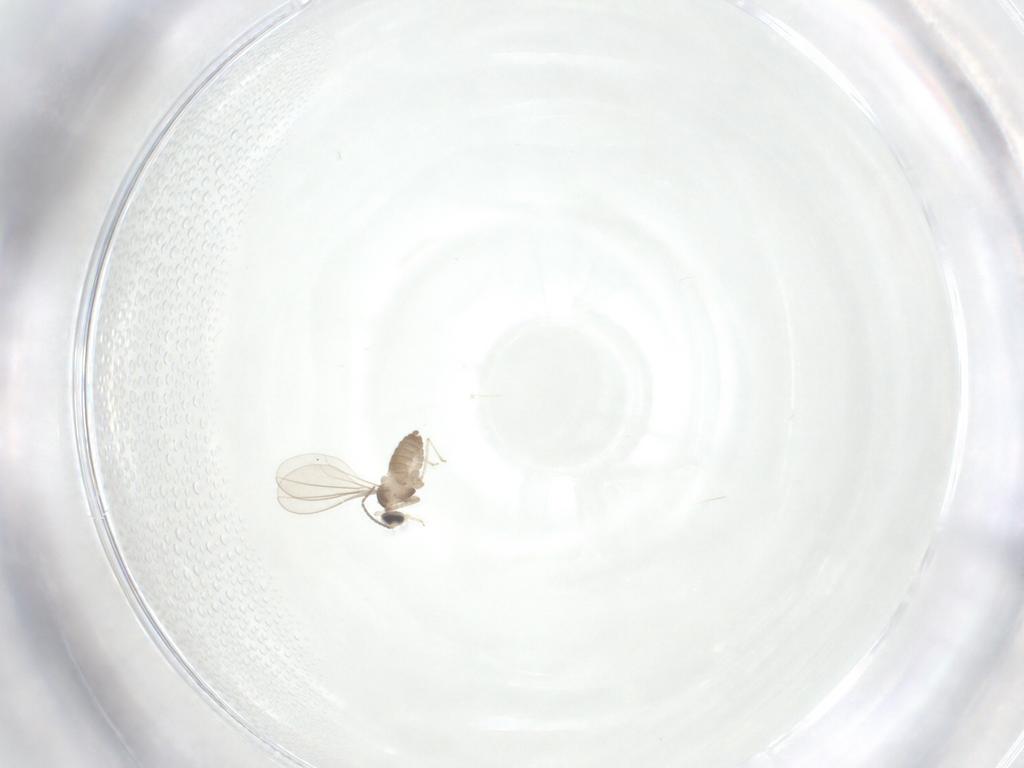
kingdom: Animalia
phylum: Arthropoda
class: Insecta
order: Diptera
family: Cecidomyiidae
